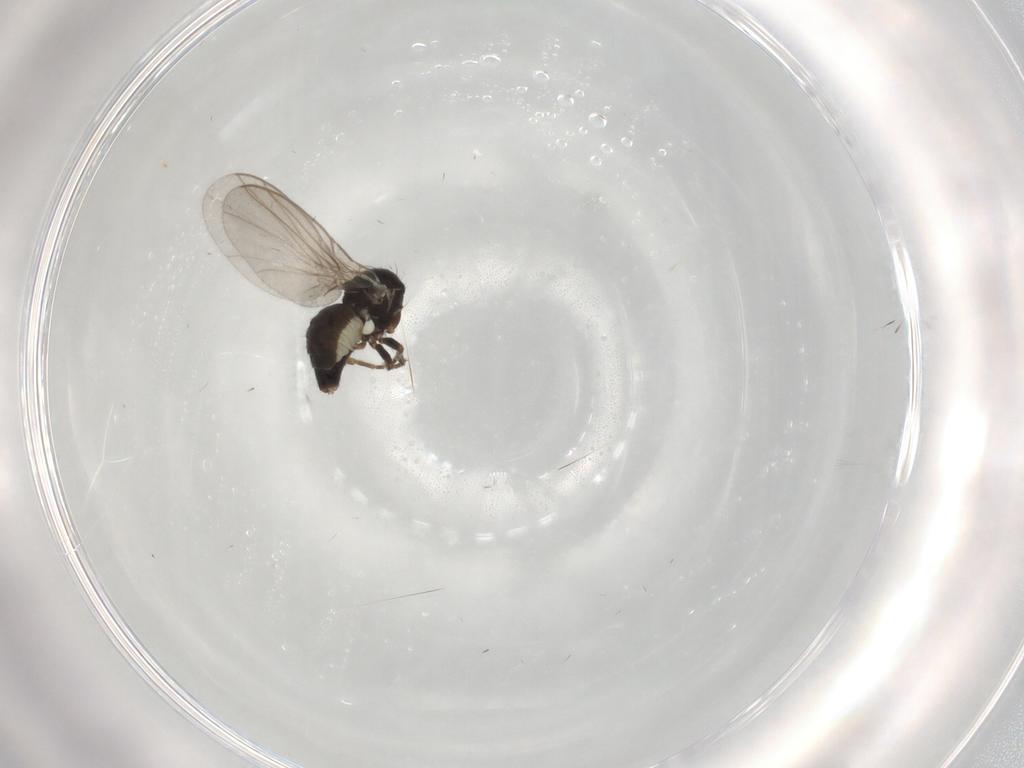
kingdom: Animalia
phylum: Arthropoda
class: Insecta
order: Diptera
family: Agromyzidae
